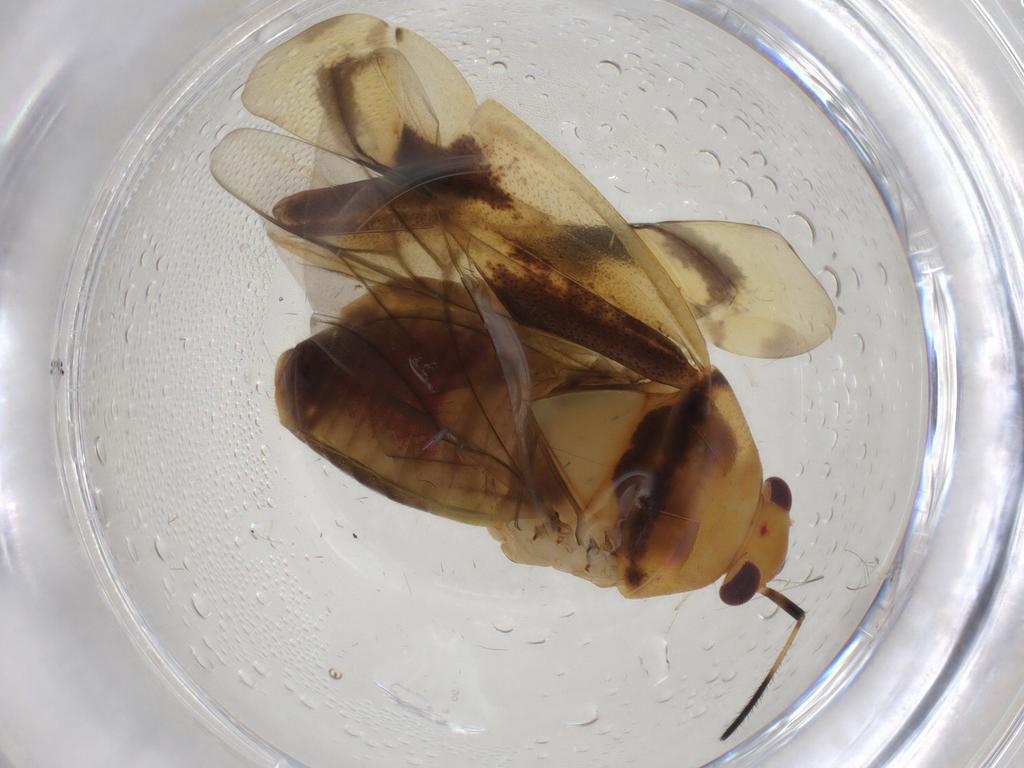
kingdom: Animalia
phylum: Arthropoda
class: Insecta
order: Hemiptera
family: Miridae
